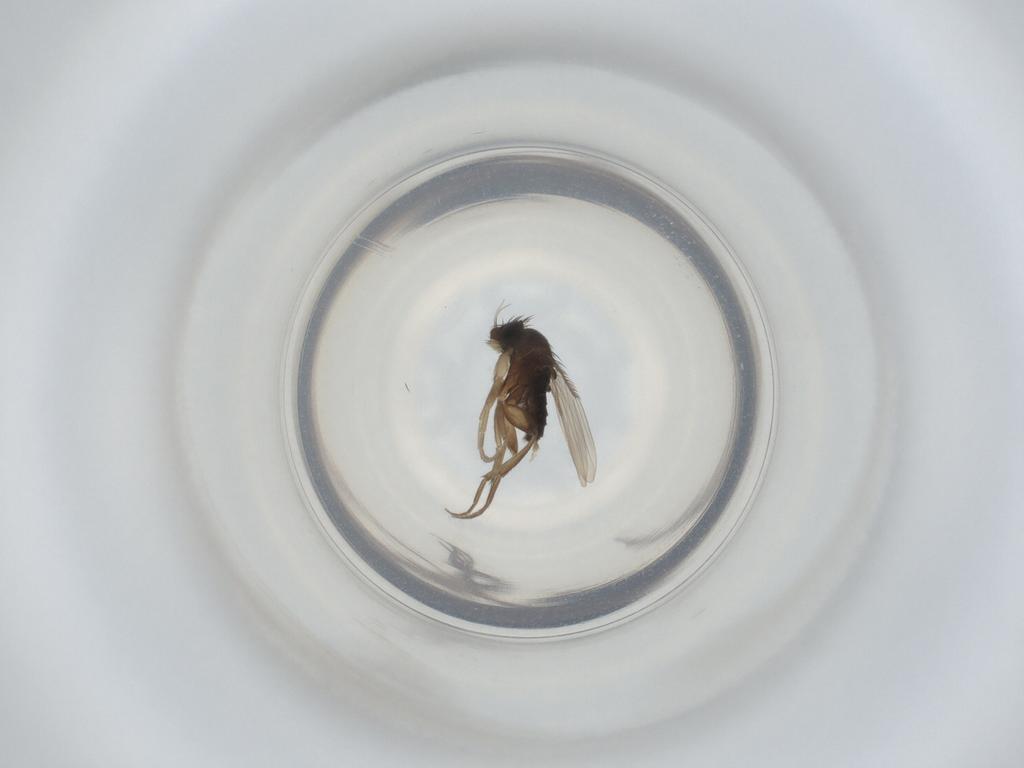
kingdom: Animalia
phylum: Arthropoda
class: Insecta
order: Diptera
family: Phoridae
